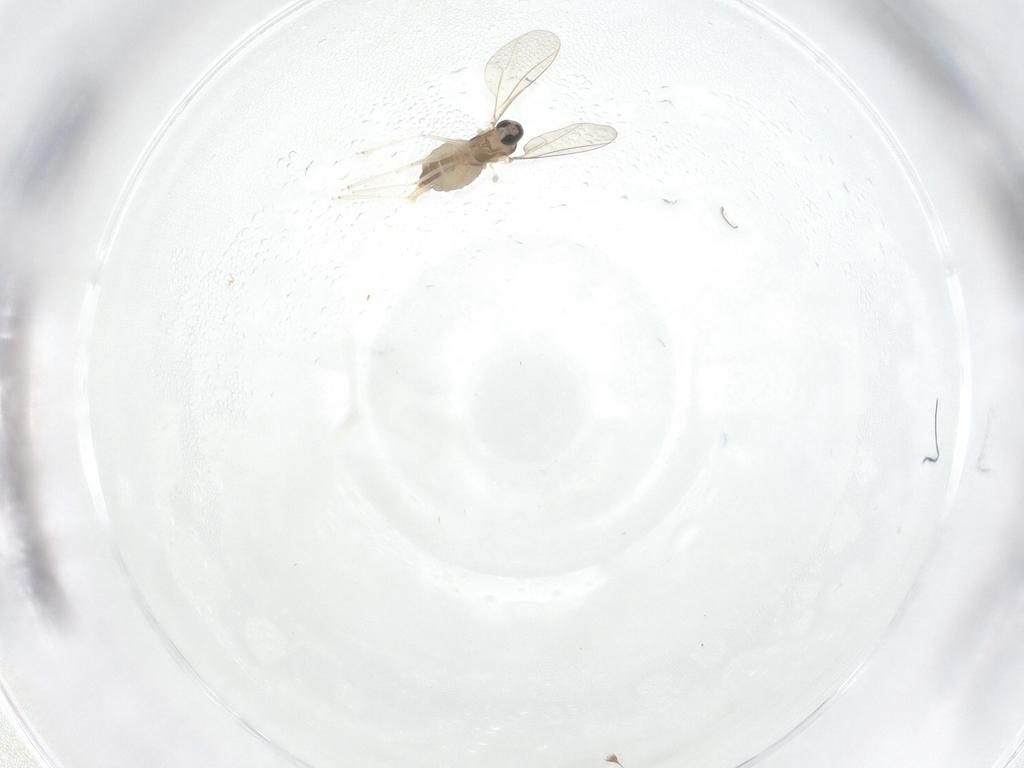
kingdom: Animalia
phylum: Arthropoda
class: Insecta
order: Diptera
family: Cecidomyiidae
